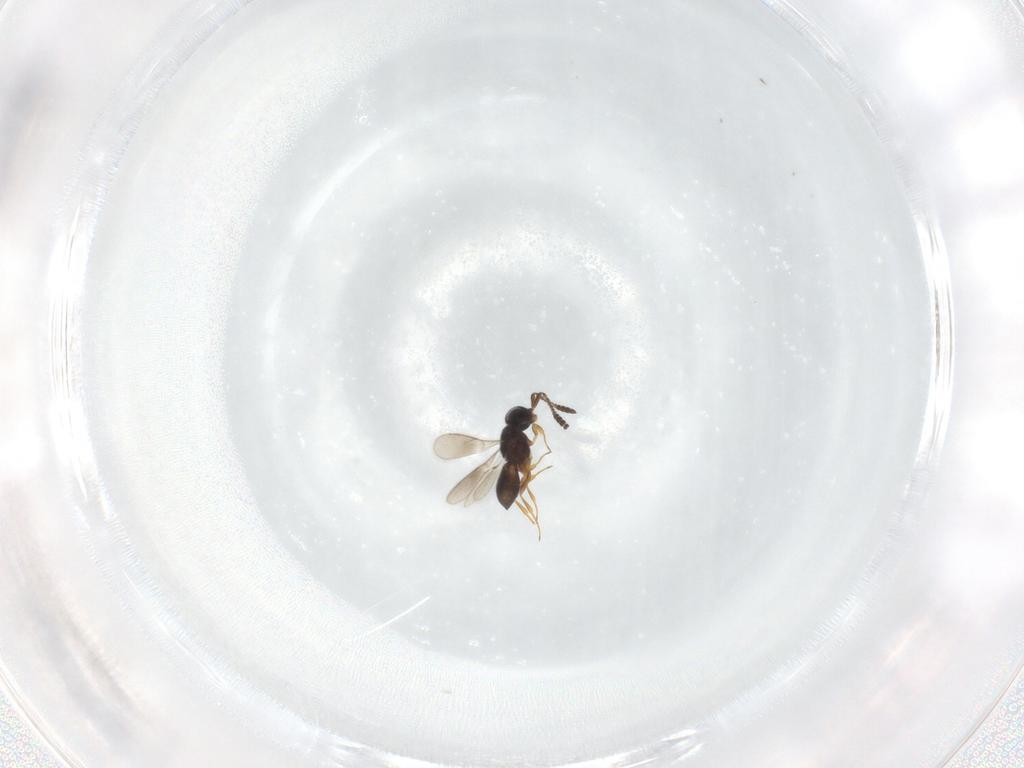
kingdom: Animalia
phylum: Arthropoda
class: Insecta
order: Hymenoptera
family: Scelionidae
